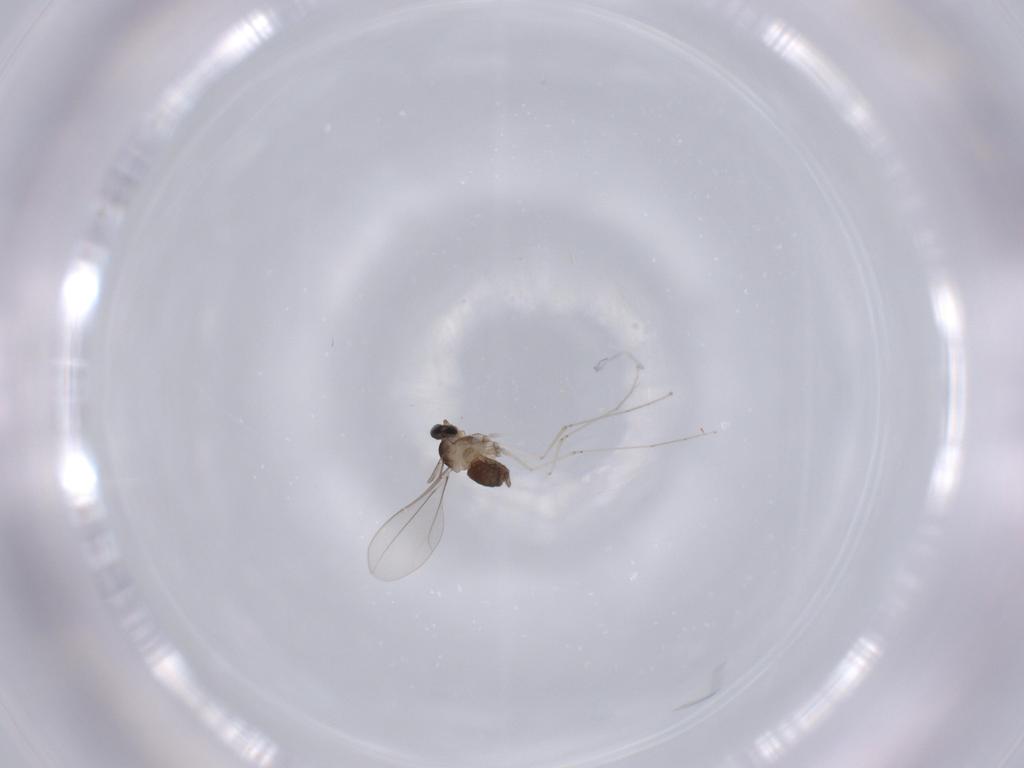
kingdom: Animalia
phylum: Arthropoda
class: Insecta
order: Diptera
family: Cecidomyiidae
